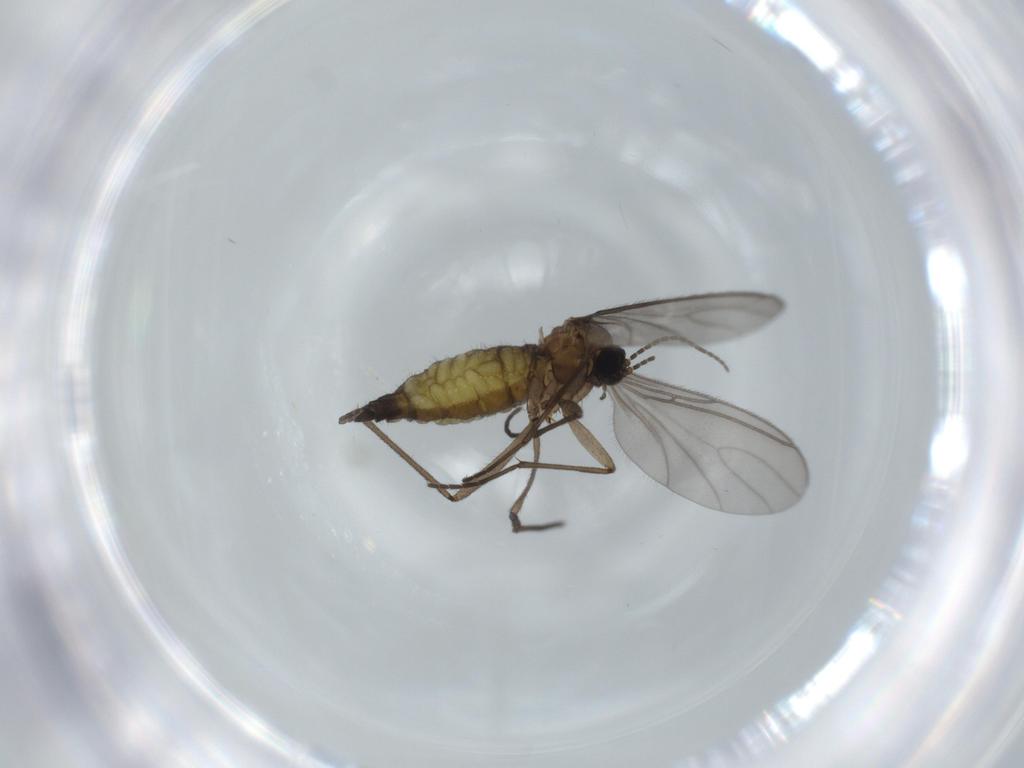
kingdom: Animalia
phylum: Arthropoda
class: Insecta
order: Diptera
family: Sciaridae
